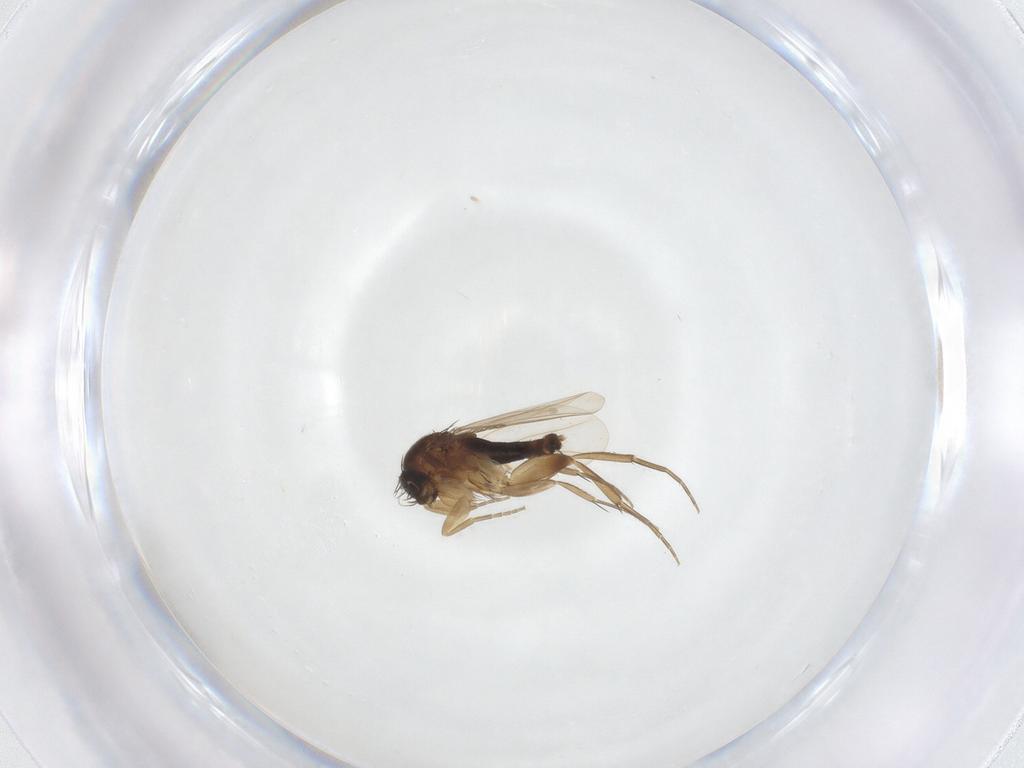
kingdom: Animalia
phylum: Arthropoda
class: Insecta
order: Diptera
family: Phoridae
